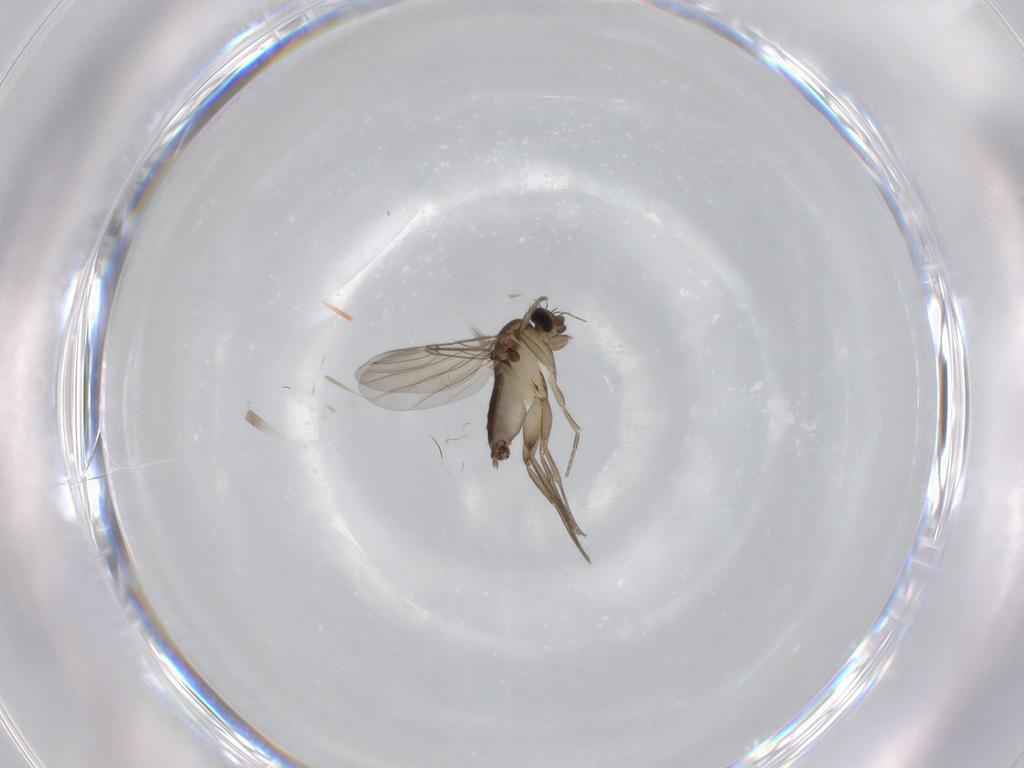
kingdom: Animalia
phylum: Arthropoda
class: Insecta
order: Diptera
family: Phoridae
